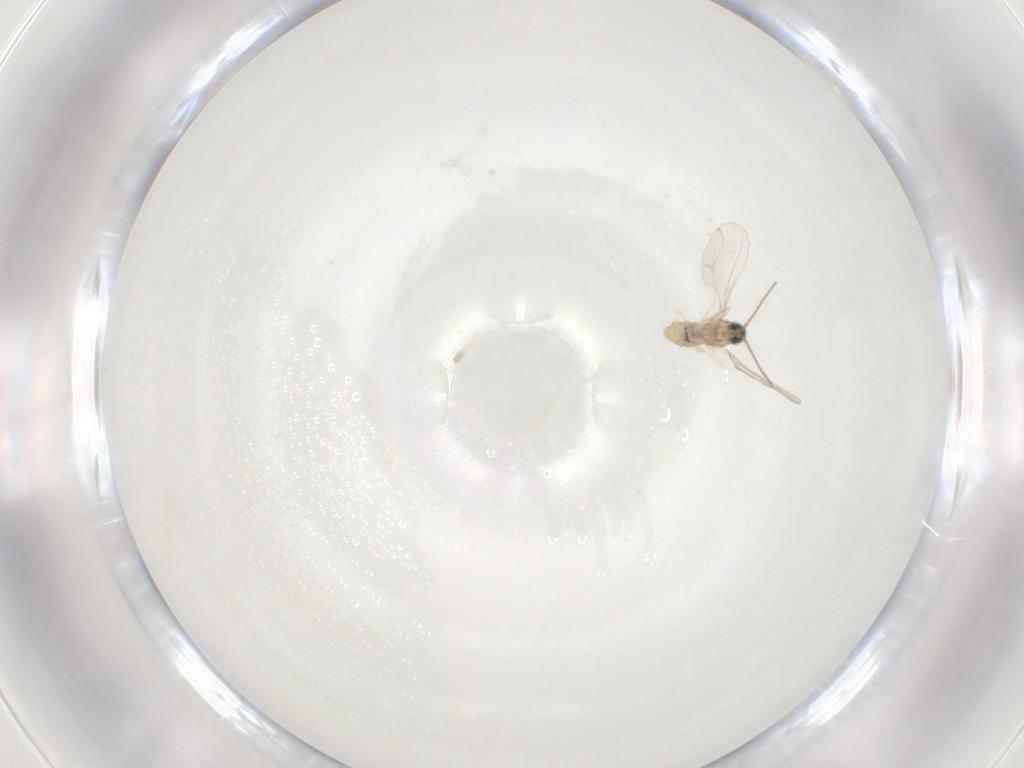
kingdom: Animalia
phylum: Arthropoda
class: Insecta
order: Diptera
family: Cecidomyiidae
